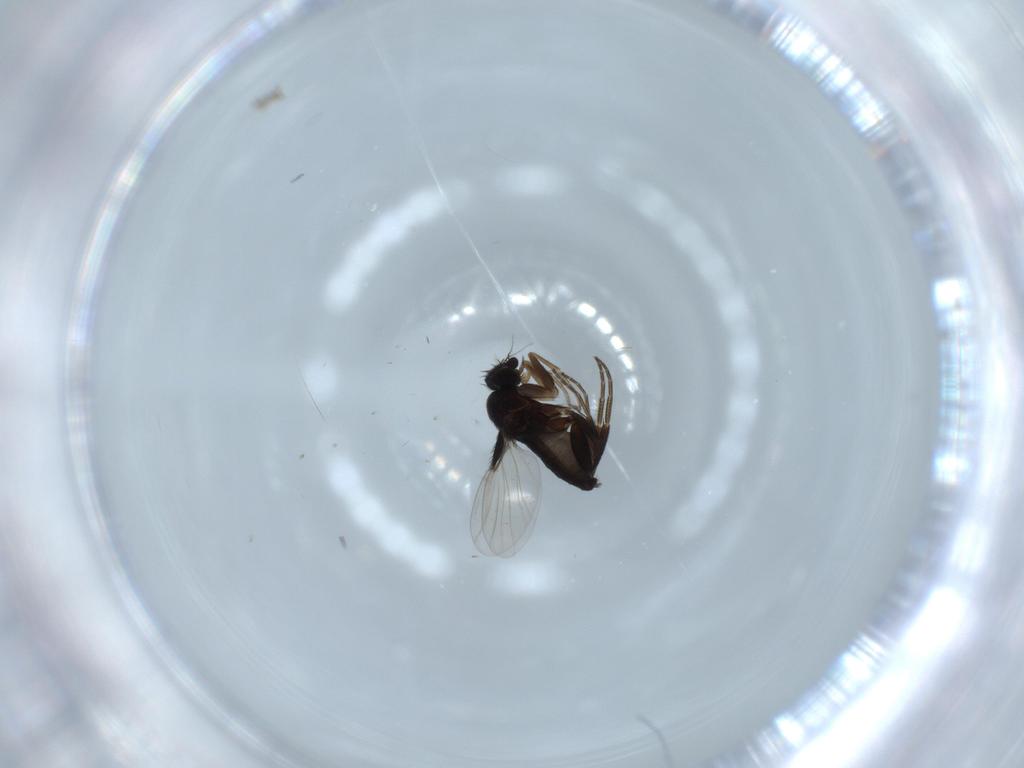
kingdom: Animalia
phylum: Arthropoda
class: Insecta
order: Diptera
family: Phoridae
